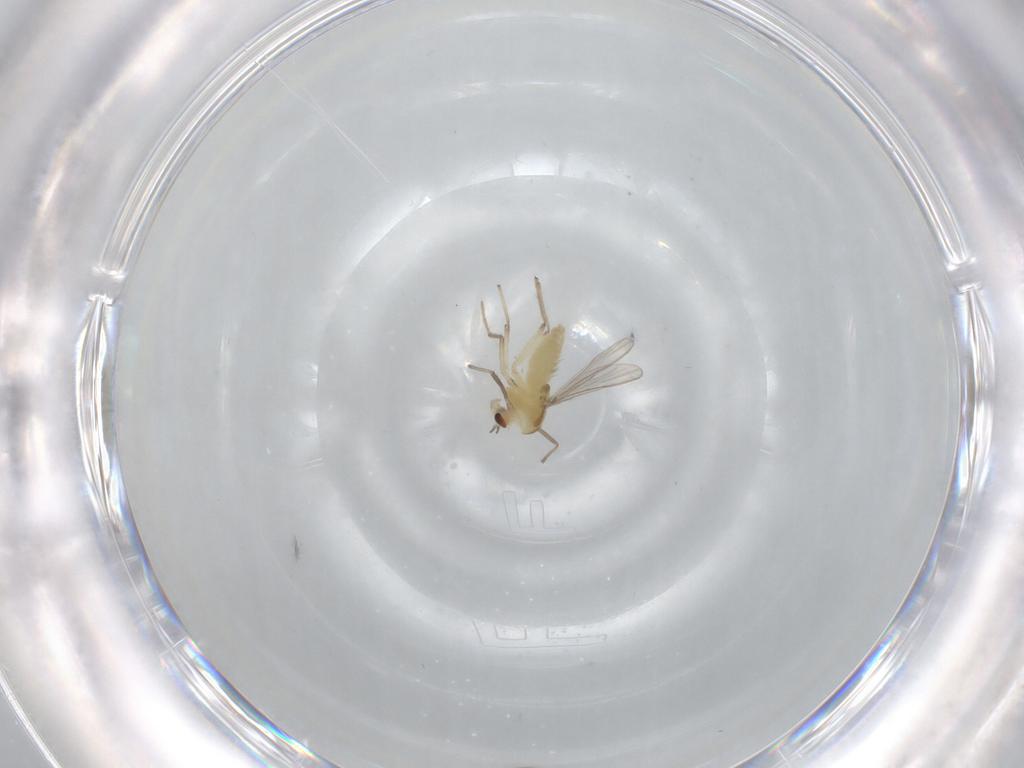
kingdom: Animalia
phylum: Arthropoda
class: Insecta
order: Diptera
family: Chironomidae
